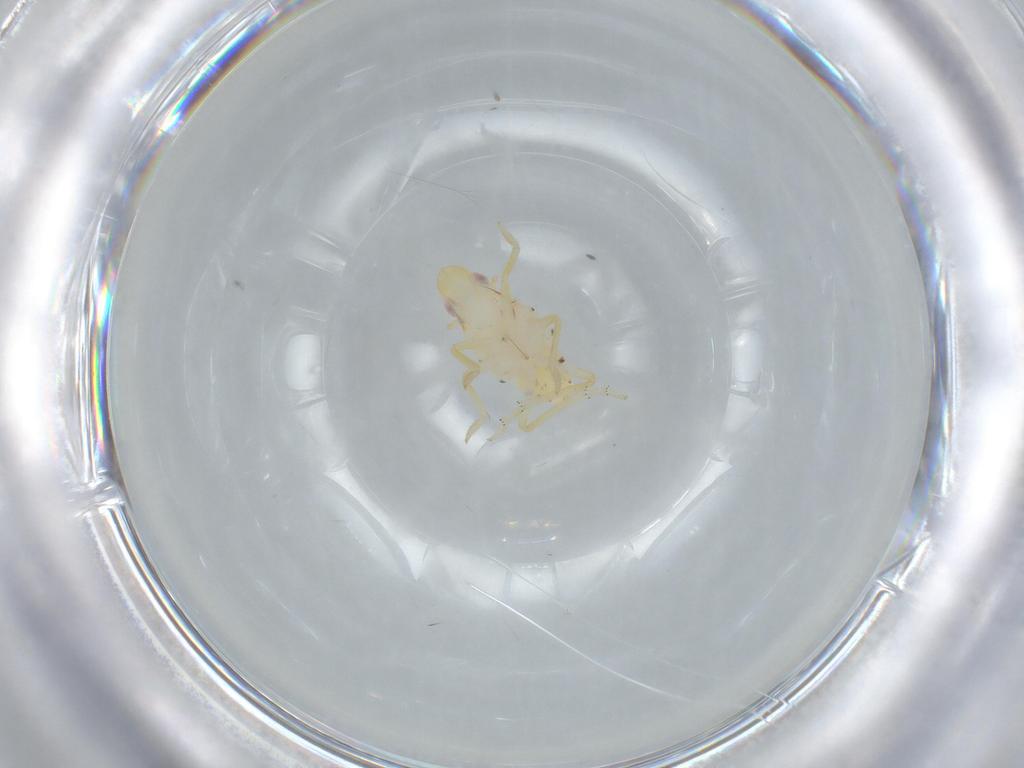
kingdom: Animalia
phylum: Arthropoda
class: Insecta
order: Hemiptera
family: Tropiduchidae
